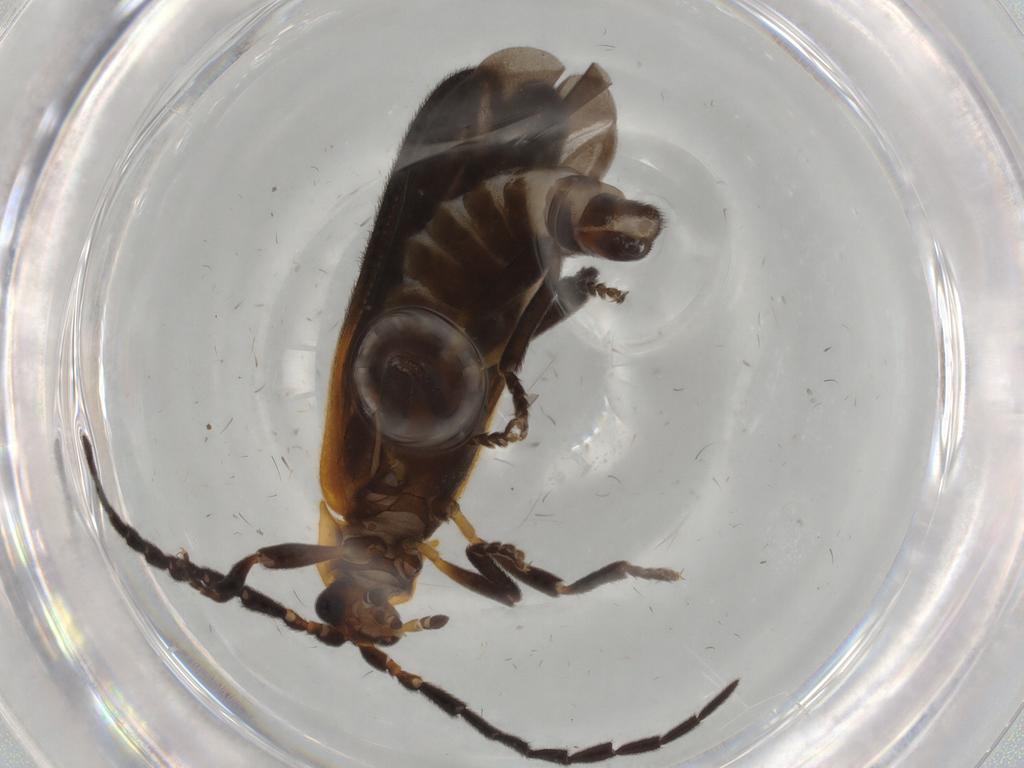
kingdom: Animalia
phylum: Arthropoda
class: Insecta
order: Coleoptera
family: Lycidae
